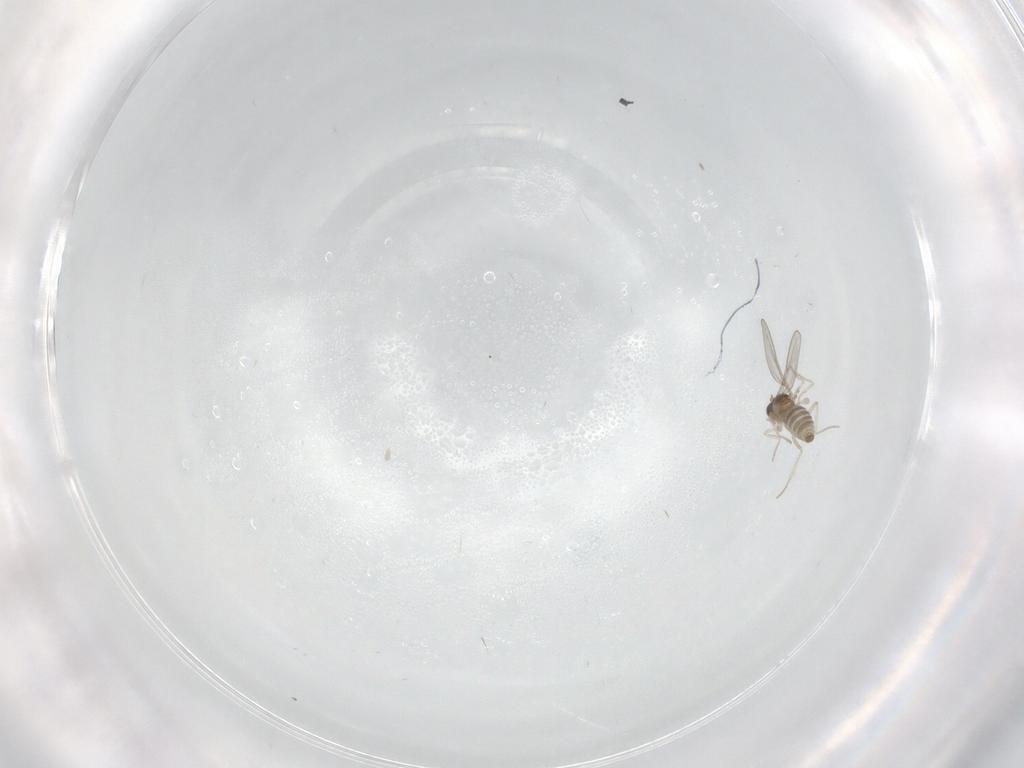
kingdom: Animalia
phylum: Arthropoda
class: Insecta
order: Diptera
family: Cecidomyiidae
